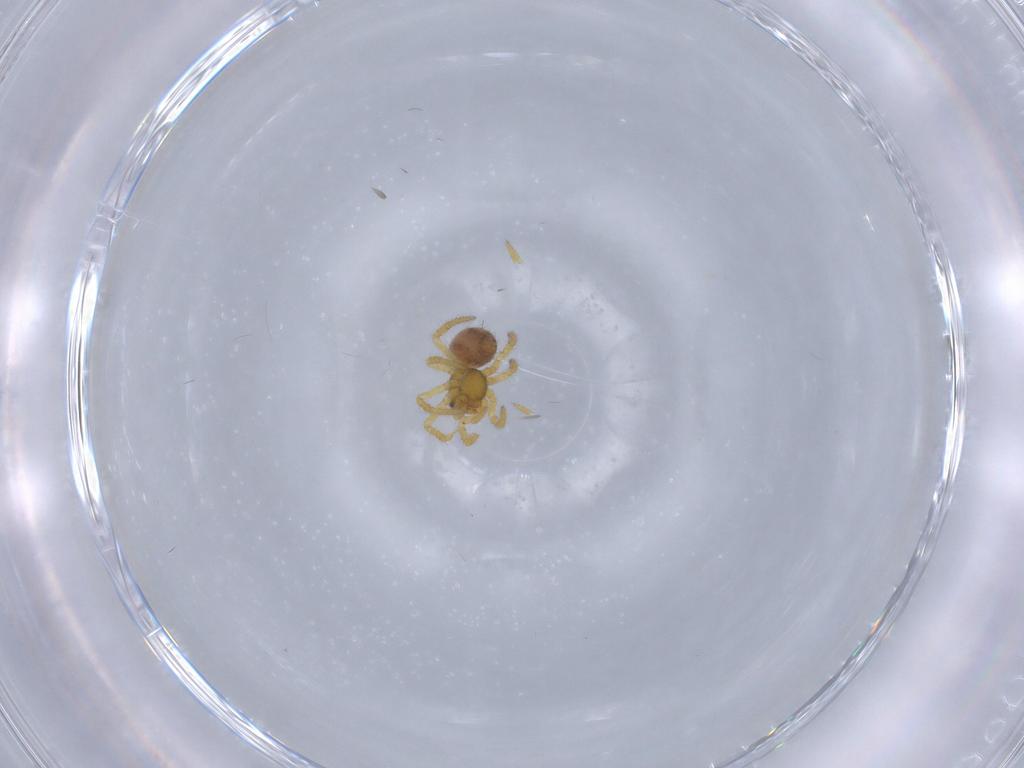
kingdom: Animalia
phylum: Arthropoda
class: Arachnida
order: Araneae
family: Theridiidae
